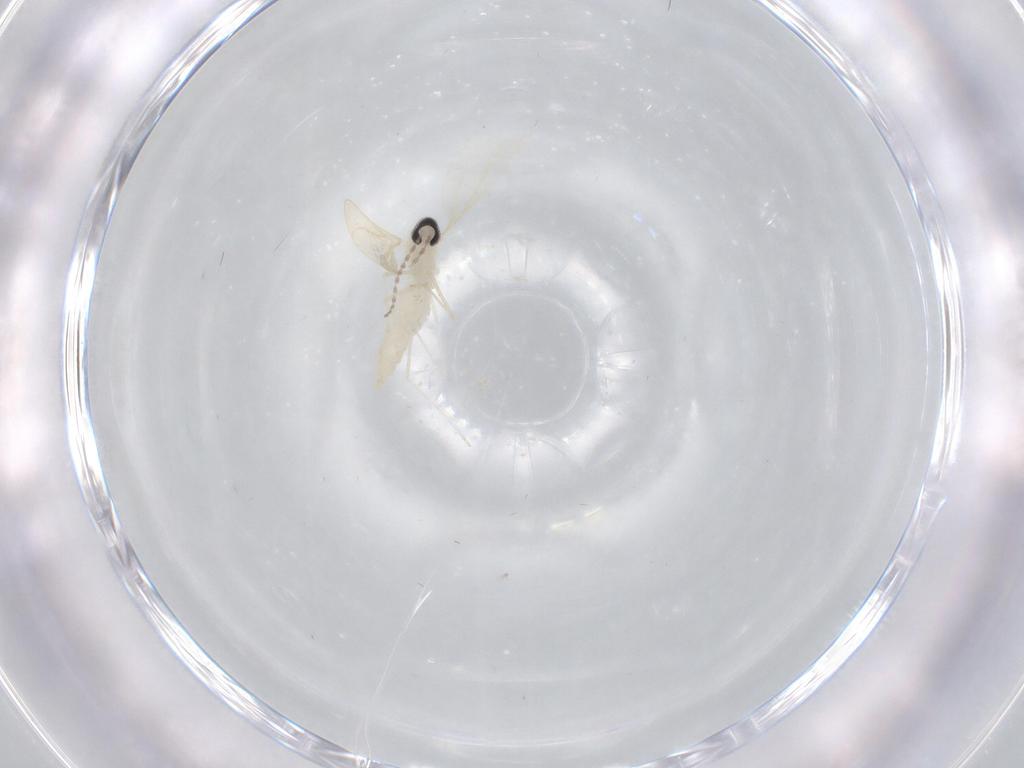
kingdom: Animalia
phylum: Arthropoda
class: Insecta
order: Diptera
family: Cecidomyiidae
